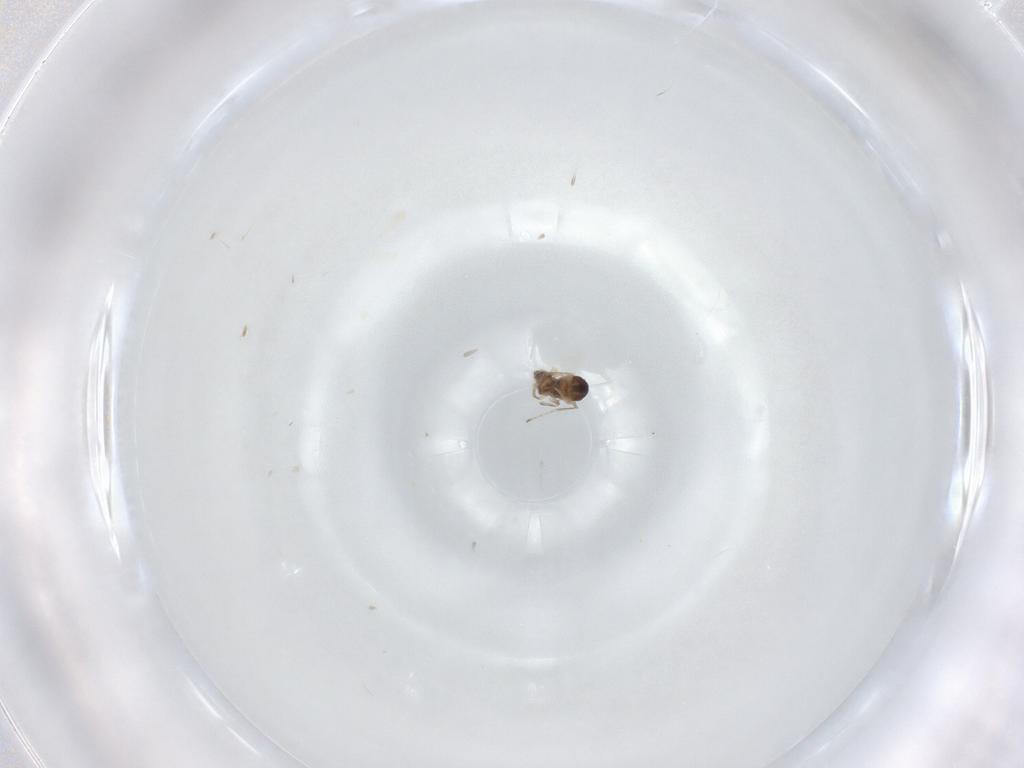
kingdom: Animalia
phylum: Arthropoda
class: Insecta
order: Diptera
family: Cecidomyiidae
